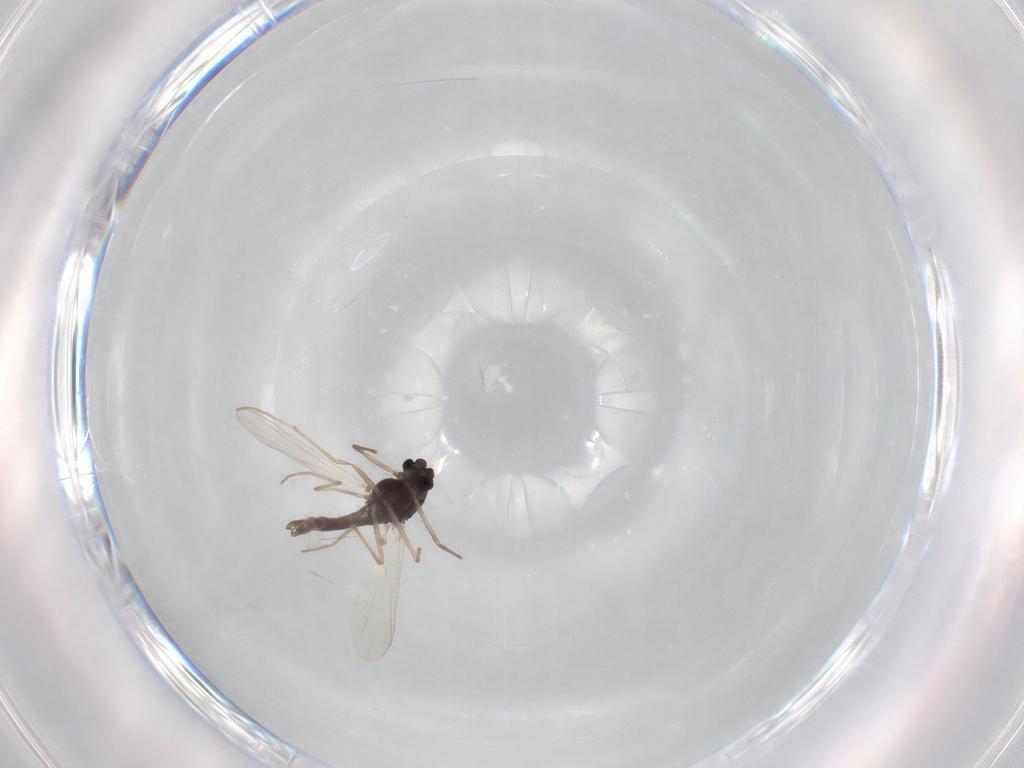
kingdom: Animalia
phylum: Arthropoda
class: Insecta
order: Diptera
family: Chironomidae
